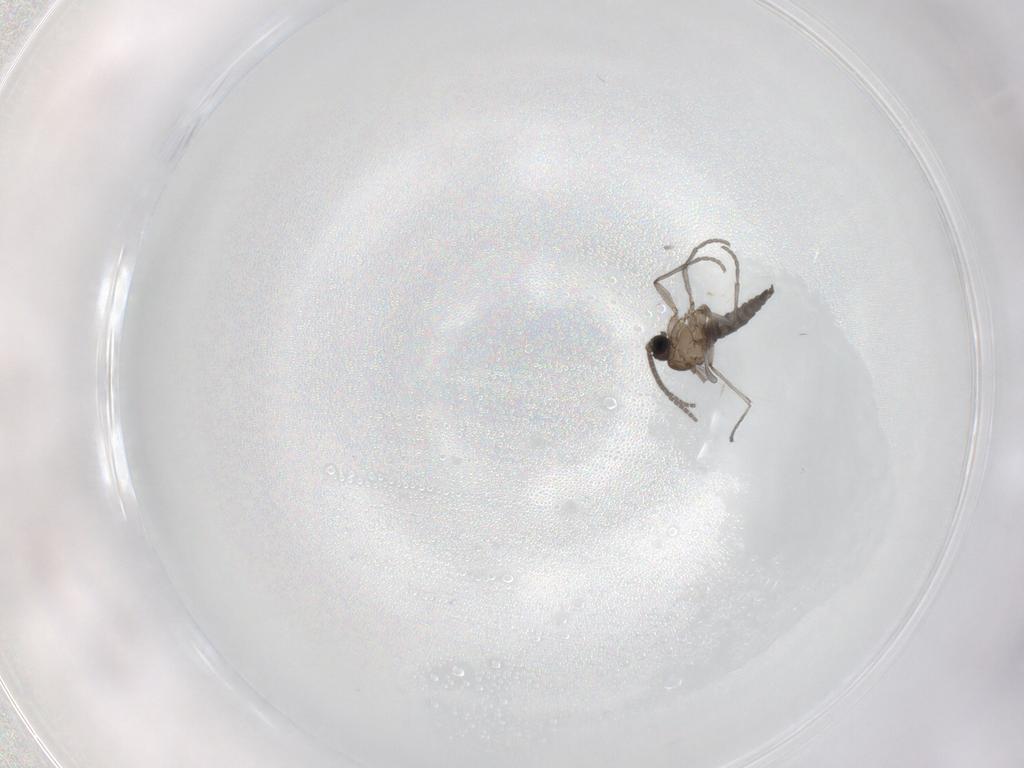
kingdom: Animalia
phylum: Arthropoda
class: Insecta
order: Diptera
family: Sciaridae
